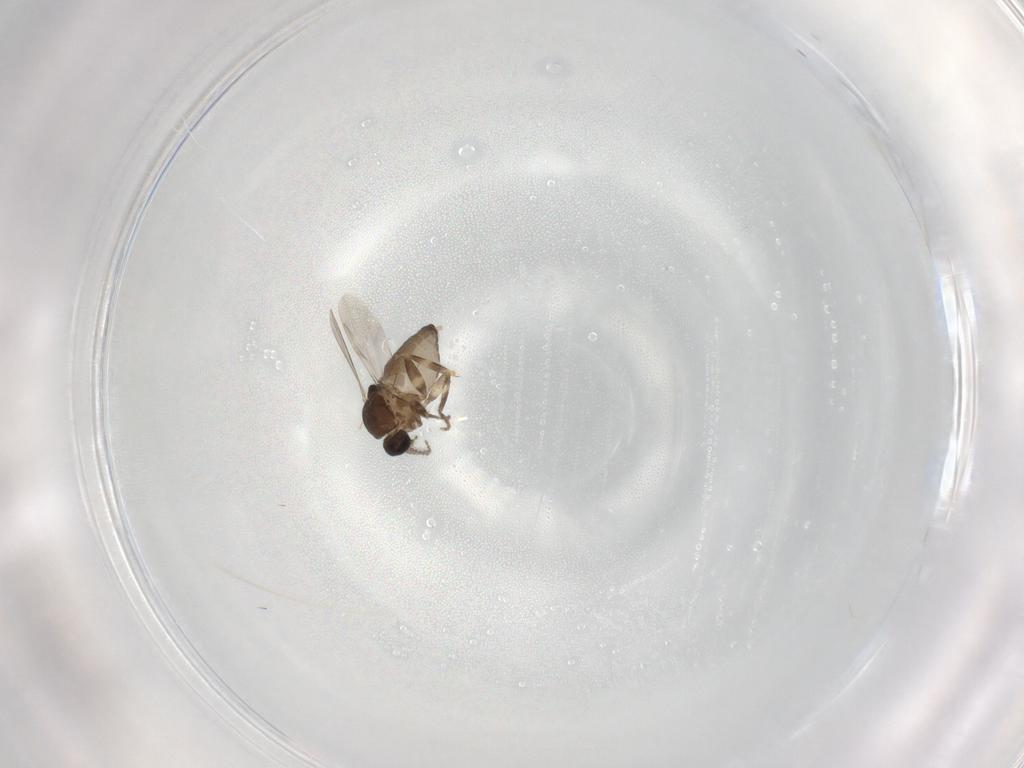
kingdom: Animalia
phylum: Arthropoda
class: Insecta
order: Diptera
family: Ceratopogonidae
